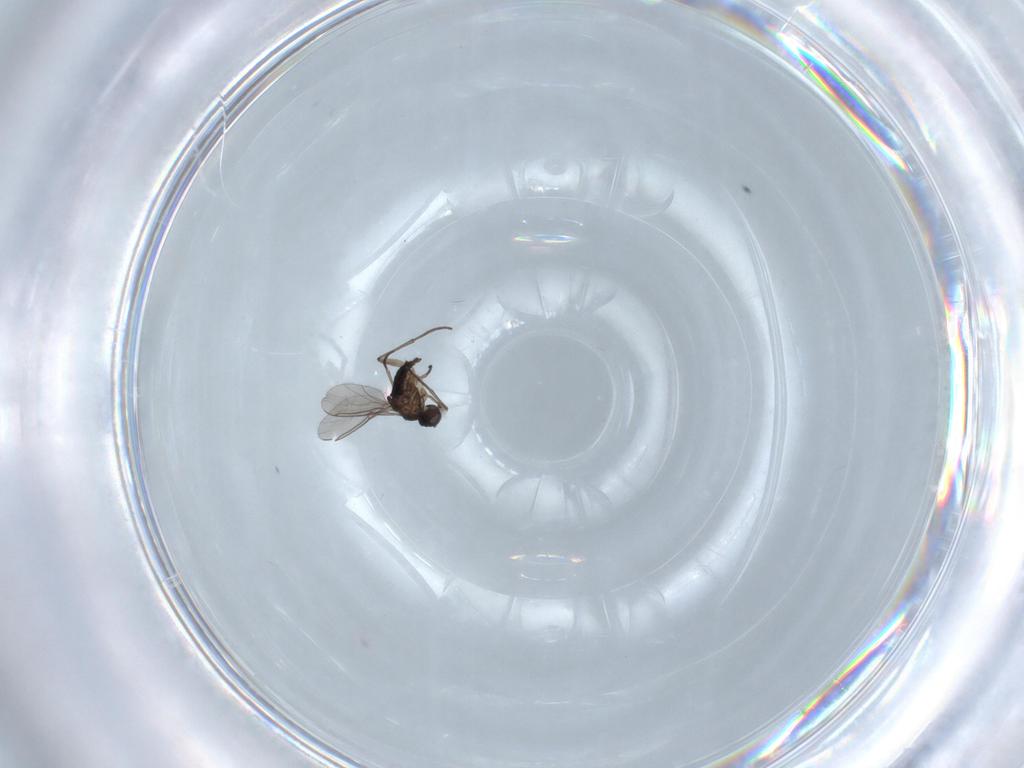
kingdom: Animalia
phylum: Arthropoda
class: Insecta
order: Diptera
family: Sciaridae
